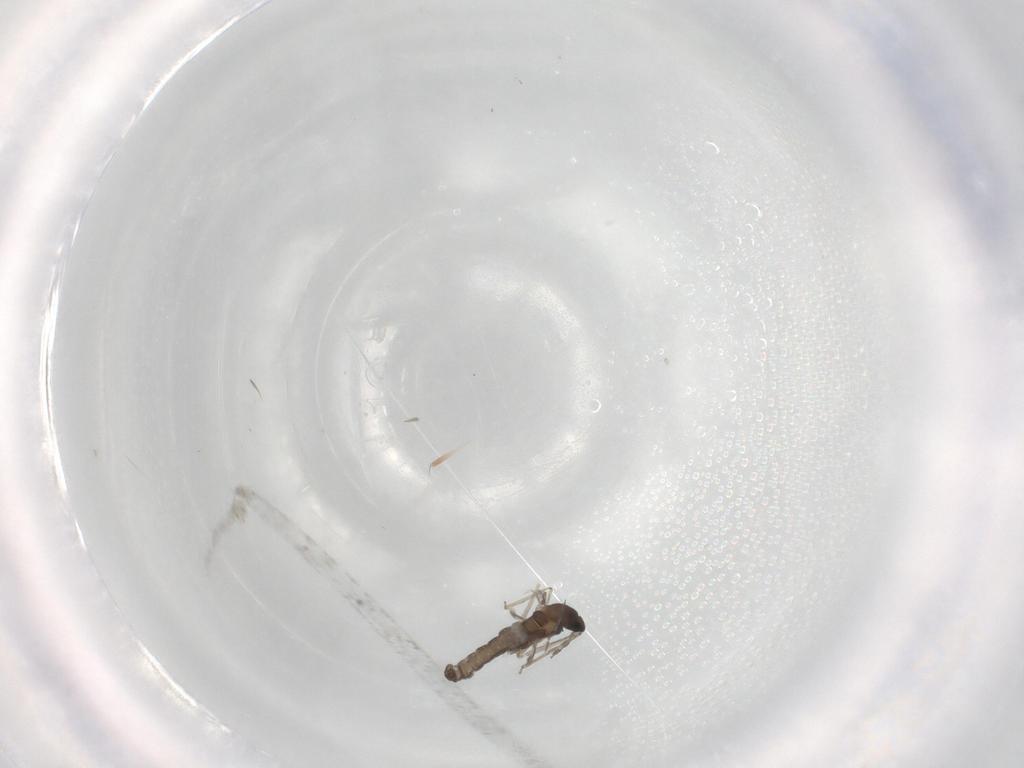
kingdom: Animalia
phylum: Arthropoda
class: Insecta
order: Diptera
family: Ceratopogonidae
